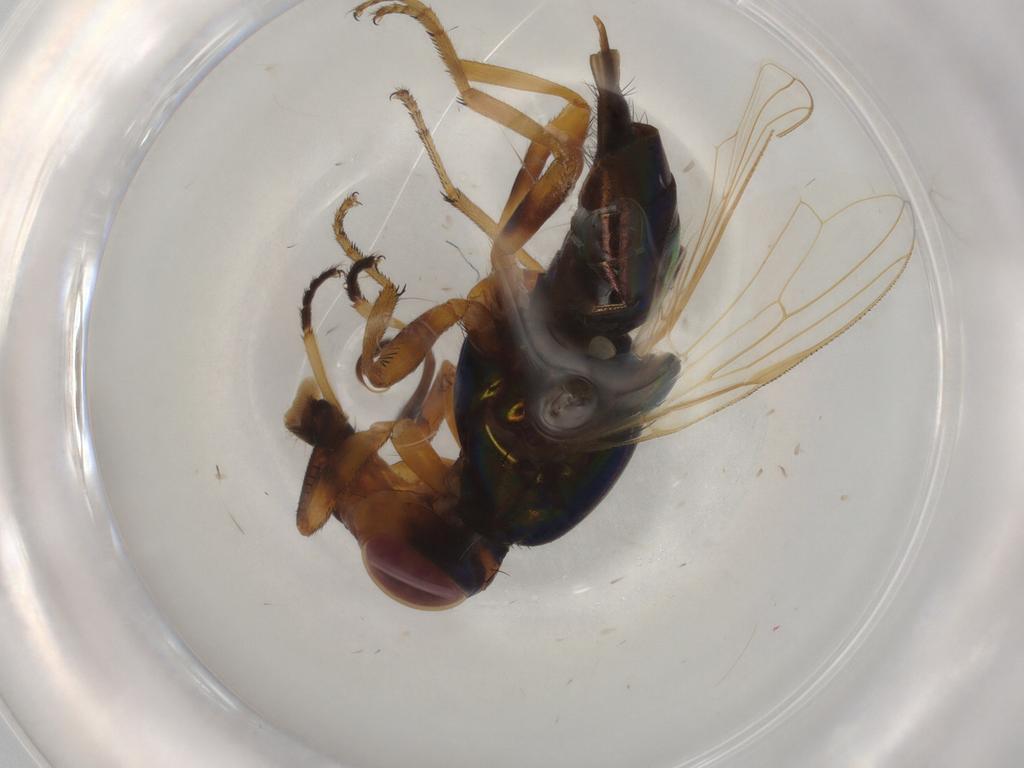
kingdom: Animalia
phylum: Arthropoda
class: Insecta
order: Diptera
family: Ulidiidae
